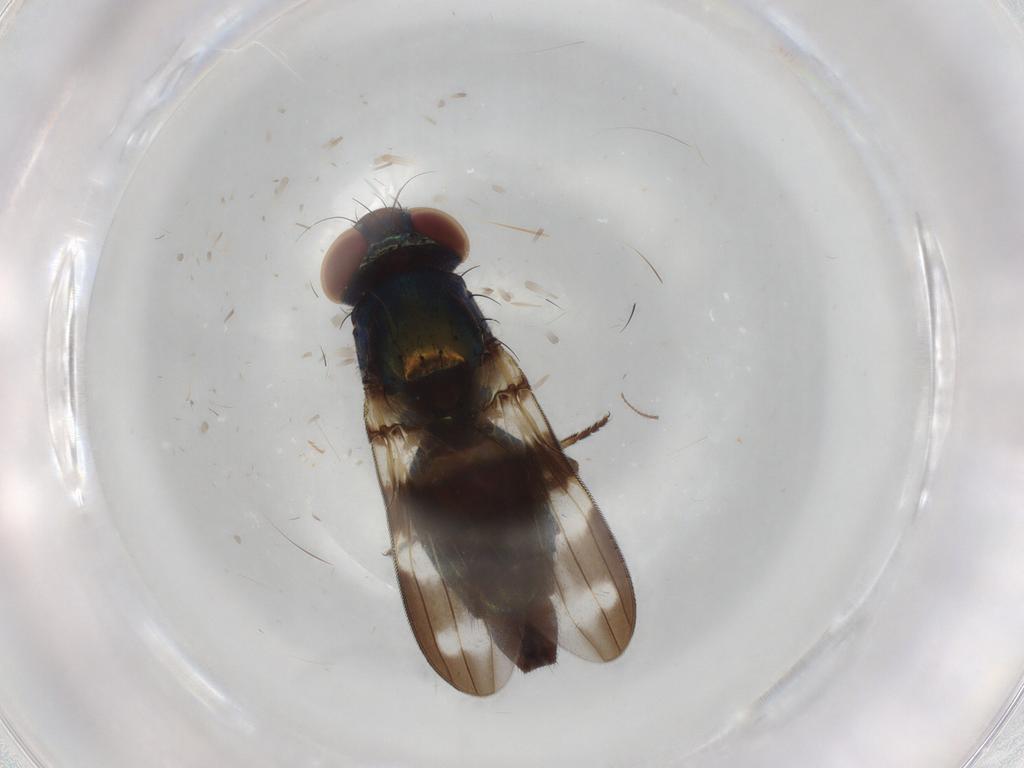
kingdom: Animalia
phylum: Arthropoda
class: Insecta
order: Diptera
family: Ulidiidae
